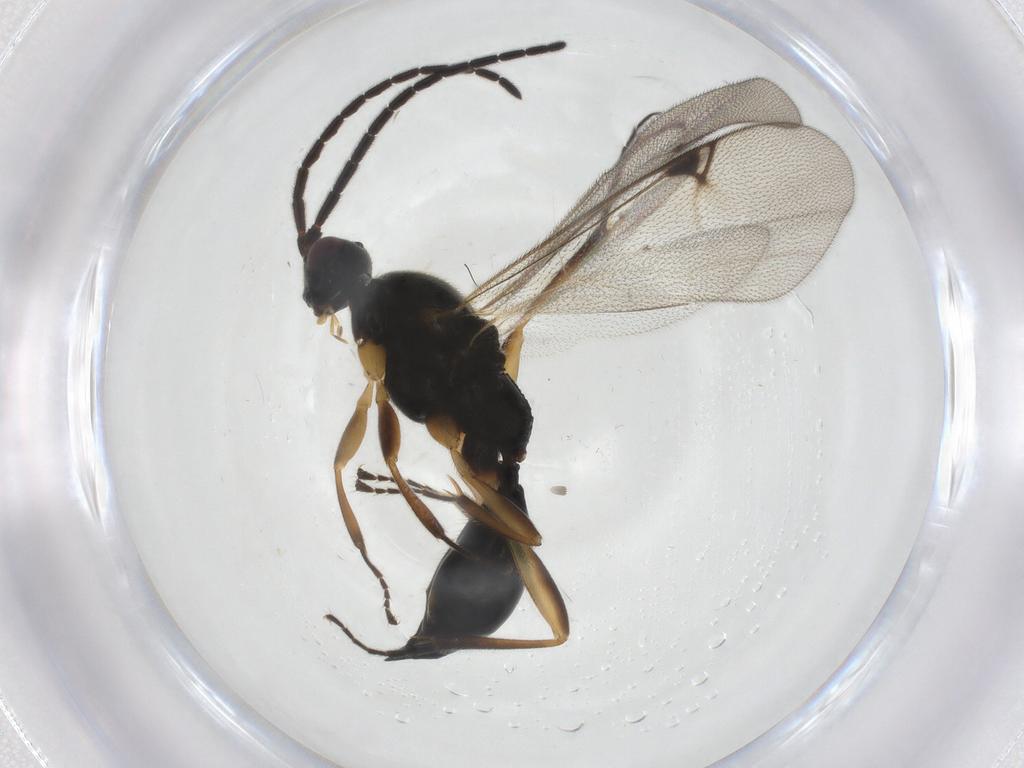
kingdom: Animalia
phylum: Arthropoda
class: Insecta
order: Hymenoptera
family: Proctotrupidae
